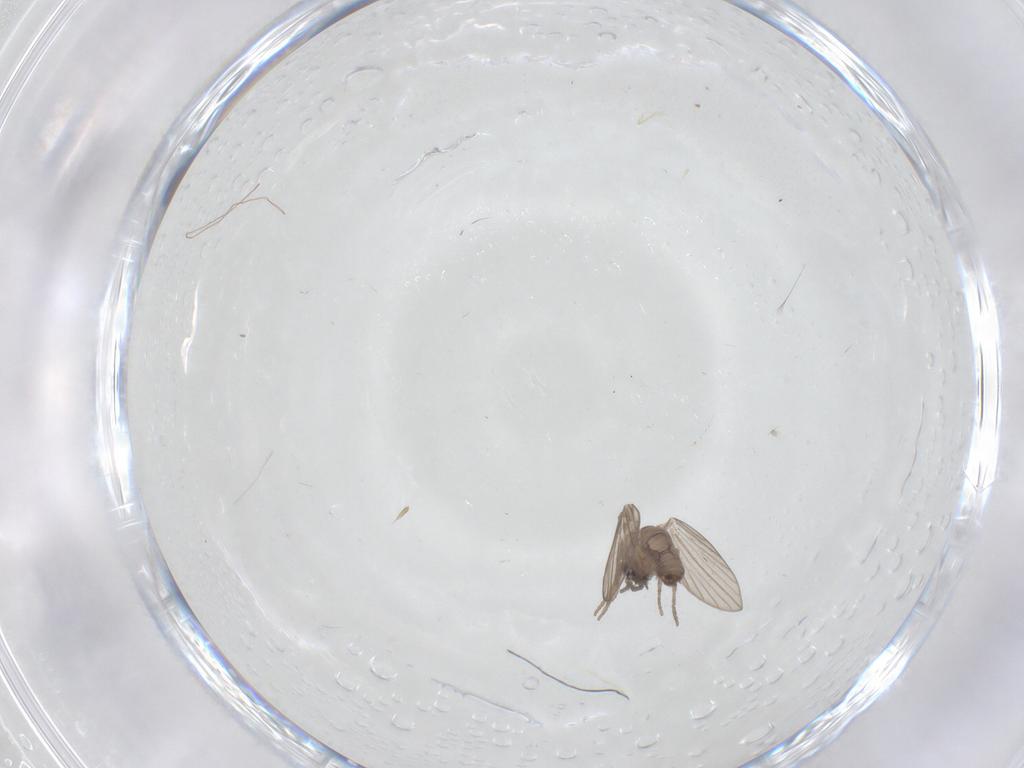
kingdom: Animalia
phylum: Arthropoda
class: Insecta
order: Diptera
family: Psychodidae
